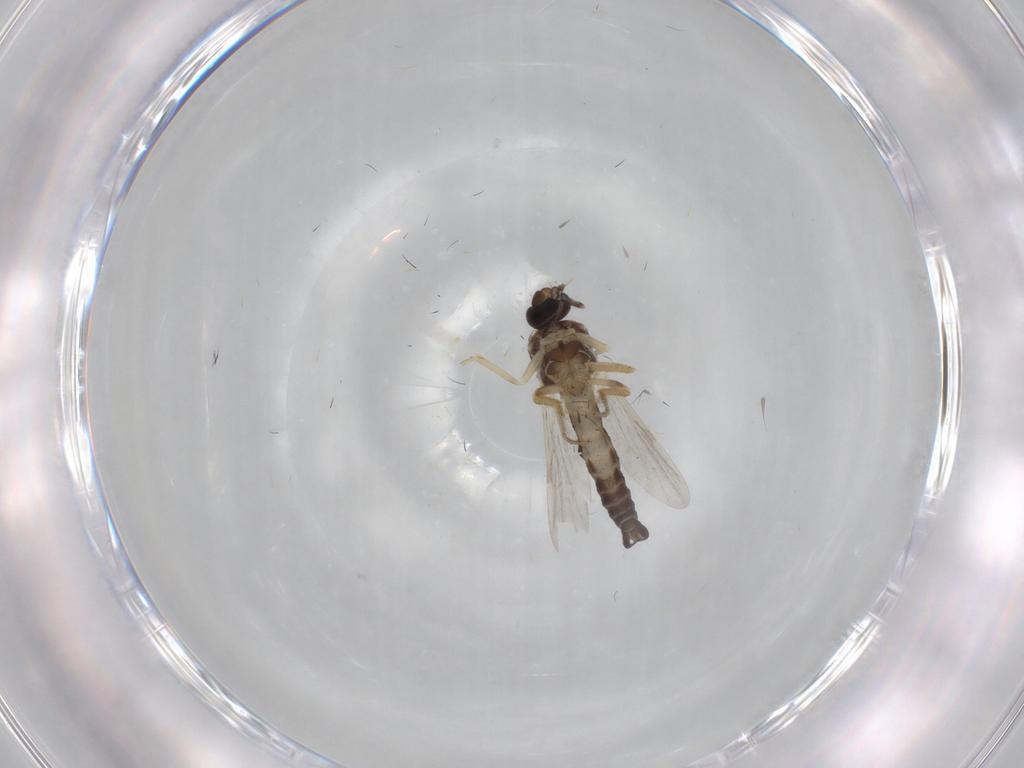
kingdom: Animalia
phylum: Arthropoda
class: Insecta
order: Diptera
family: Ceratopogonidae
